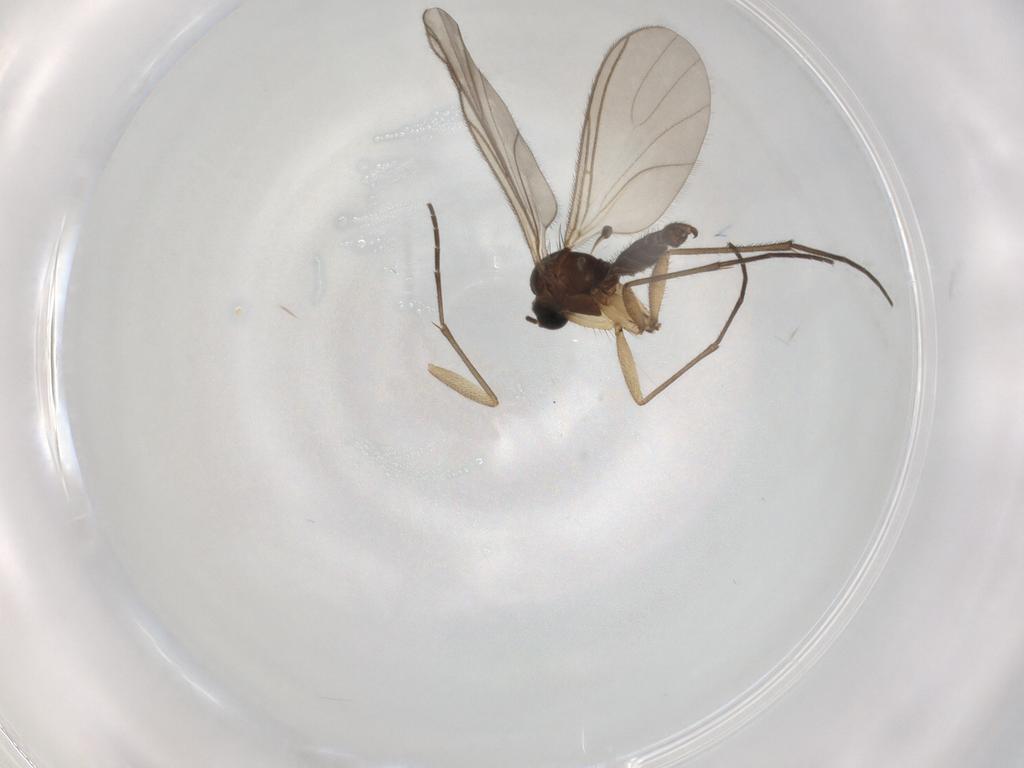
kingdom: Animalia
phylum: Arthropoda
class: Insecta
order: Diptera
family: Sciaridae
